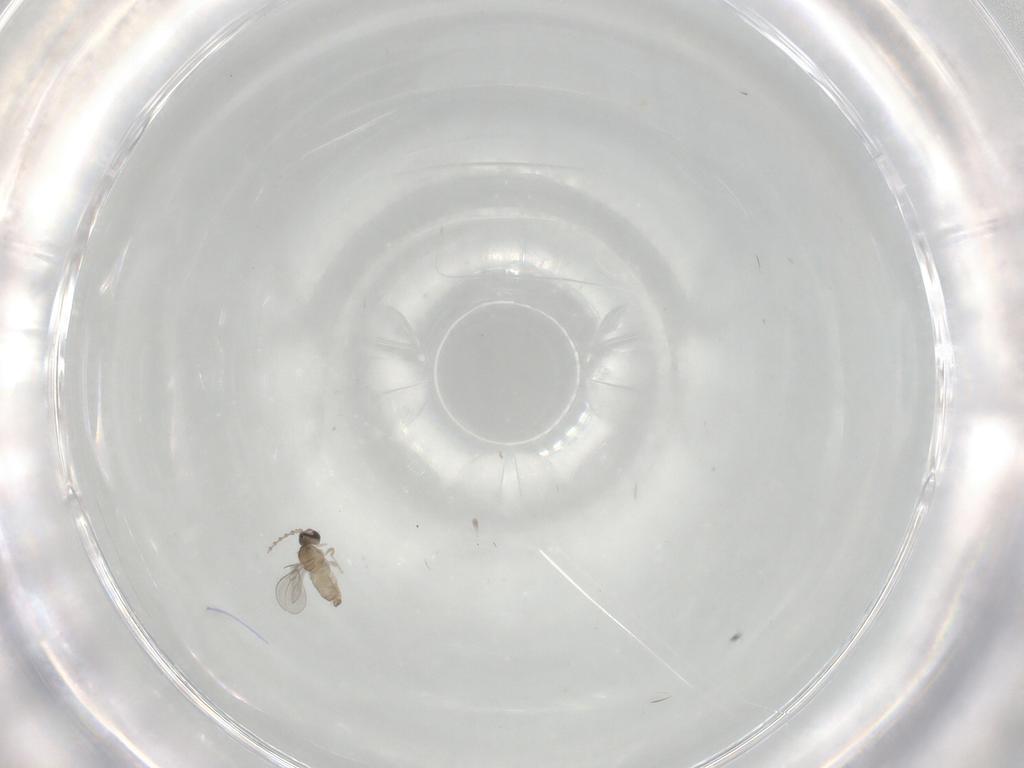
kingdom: Animalia
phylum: Arthropoda
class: Insecta
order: Diptera
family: Cecidomyiidae
